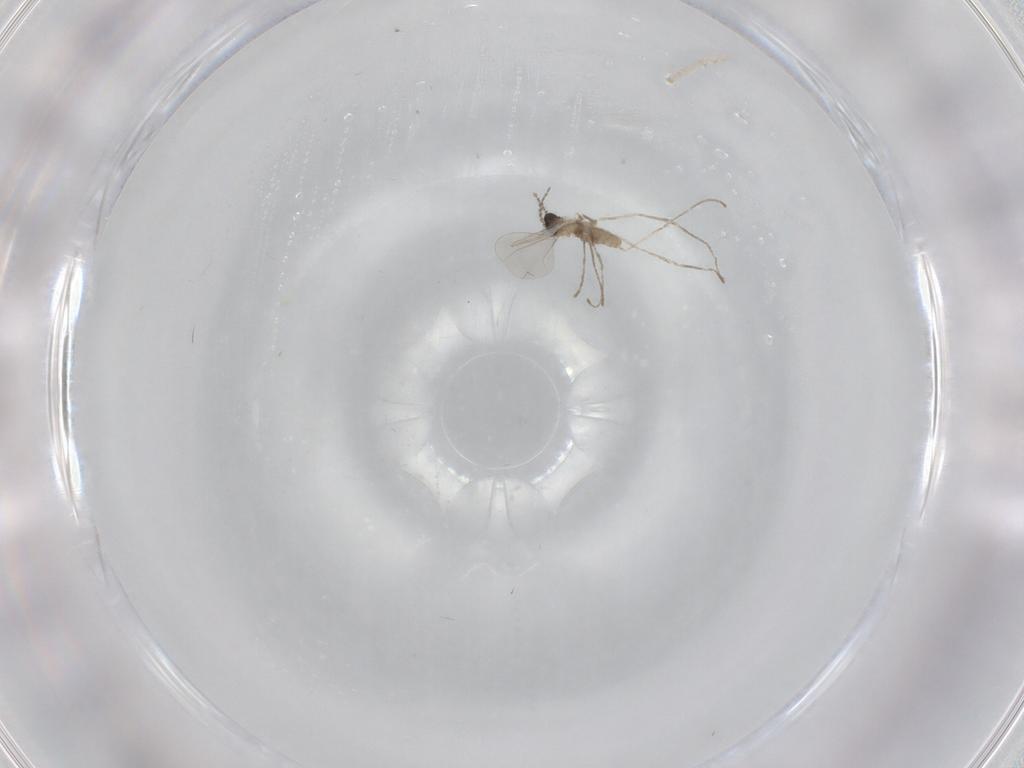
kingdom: Animalia
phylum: Arthropoda
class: Insecta
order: Diptera
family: Cecidomyiidae
